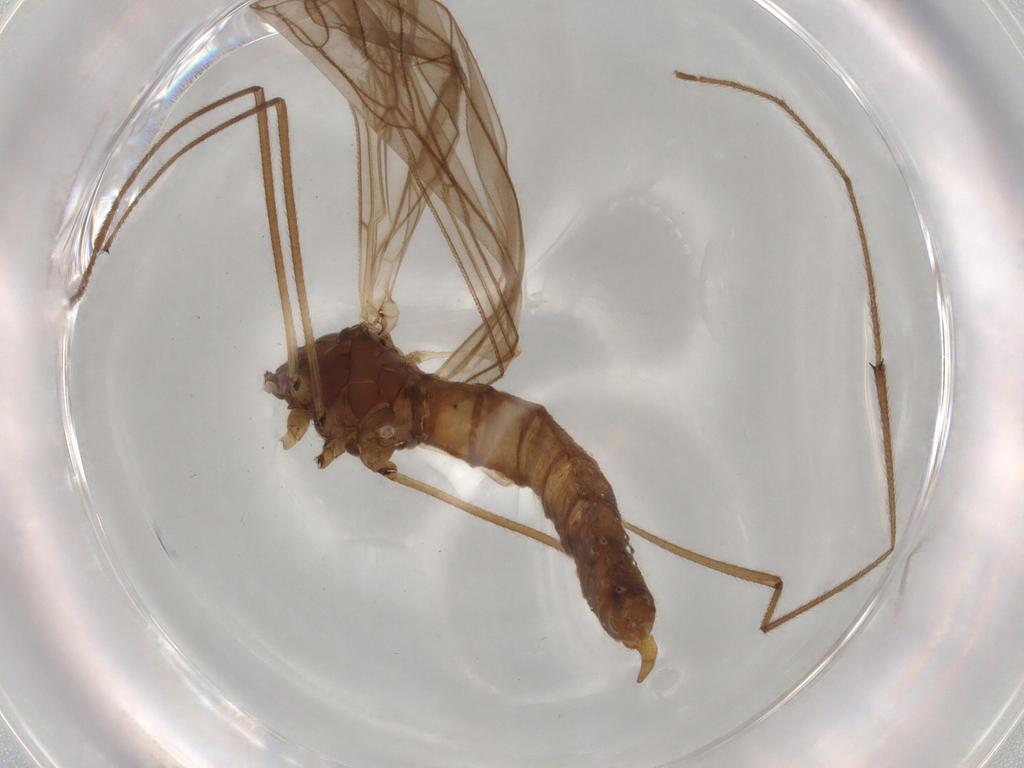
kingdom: Animalia
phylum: Arthropoda
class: Insecta
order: Diptera
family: Trichoceridae
